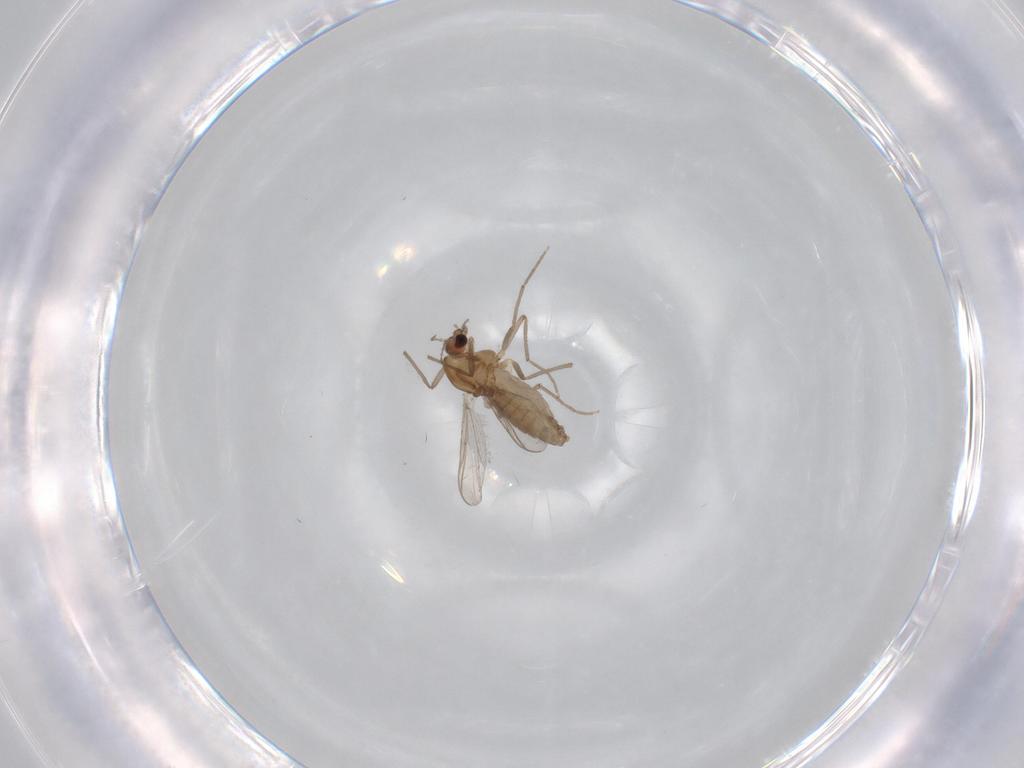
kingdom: Animalia
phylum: Arthropoda
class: Insecta
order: Diptera
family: Chironomidae
